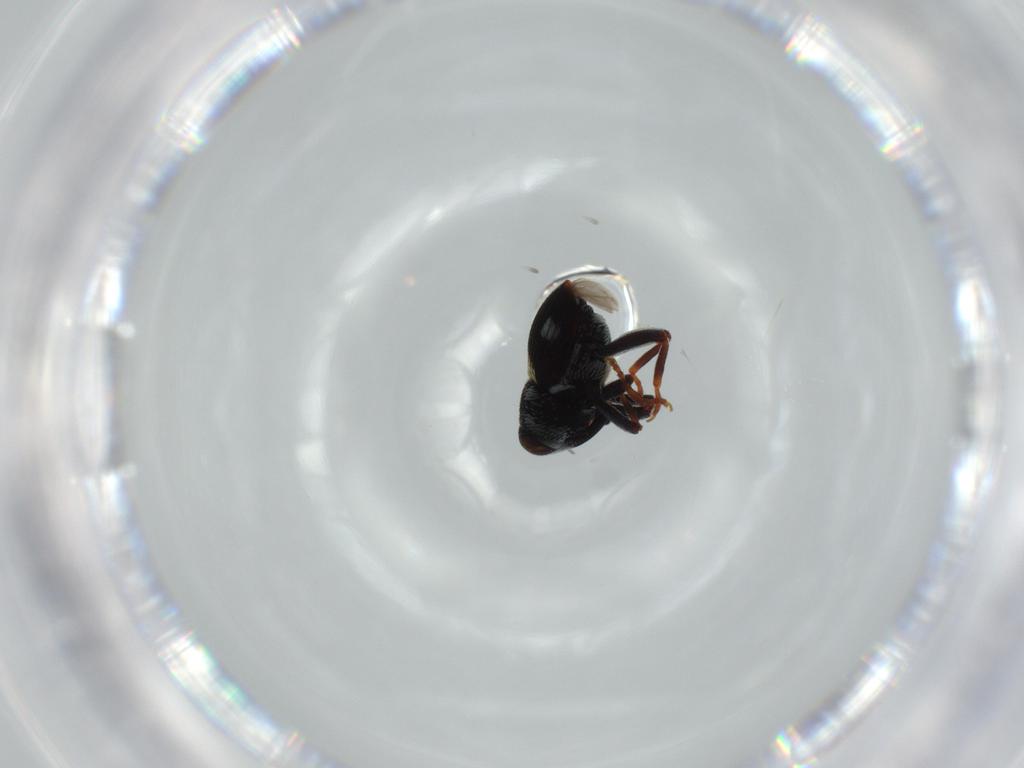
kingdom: Animalia
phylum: Arthropoda
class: Insecta
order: Coleoptera
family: Curculionidae
